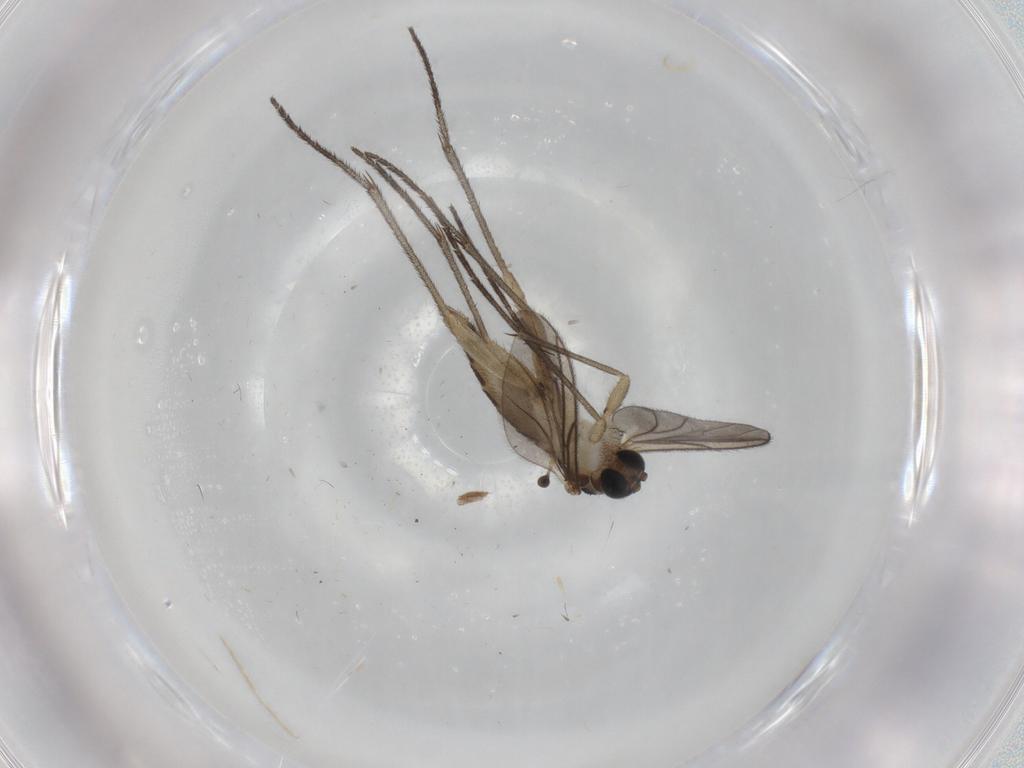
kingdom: Animalia
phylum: Arthropoda
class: Insecta
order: Diptera
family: Sciaridae
